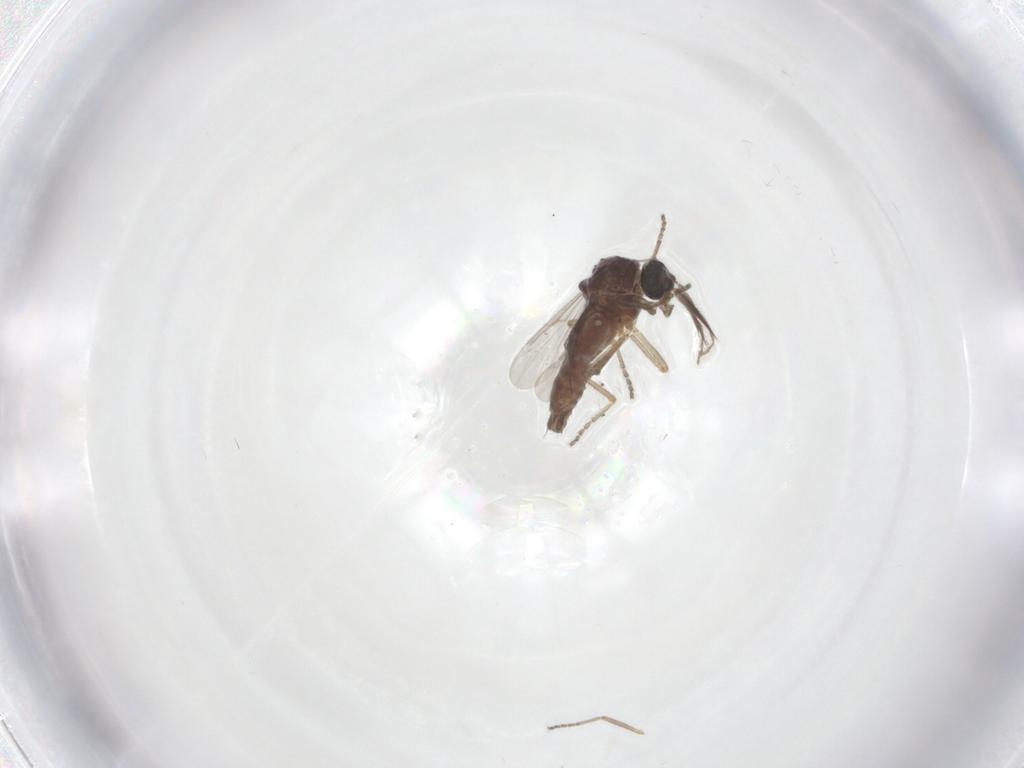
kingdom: Animalia
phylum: Arthropoda
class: Insecta
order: Diptera
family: Ceratopogonidae
